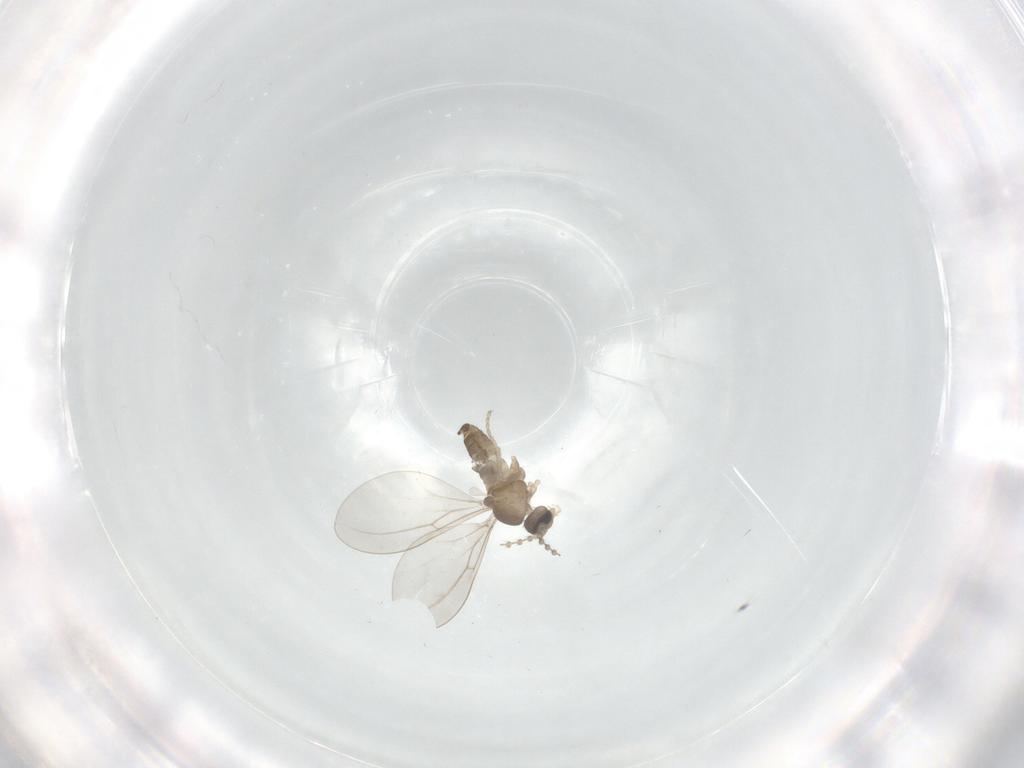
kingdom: Animalia
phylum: Arthropoda
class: Insecta
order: Diptera
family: Cecidomyiidae
